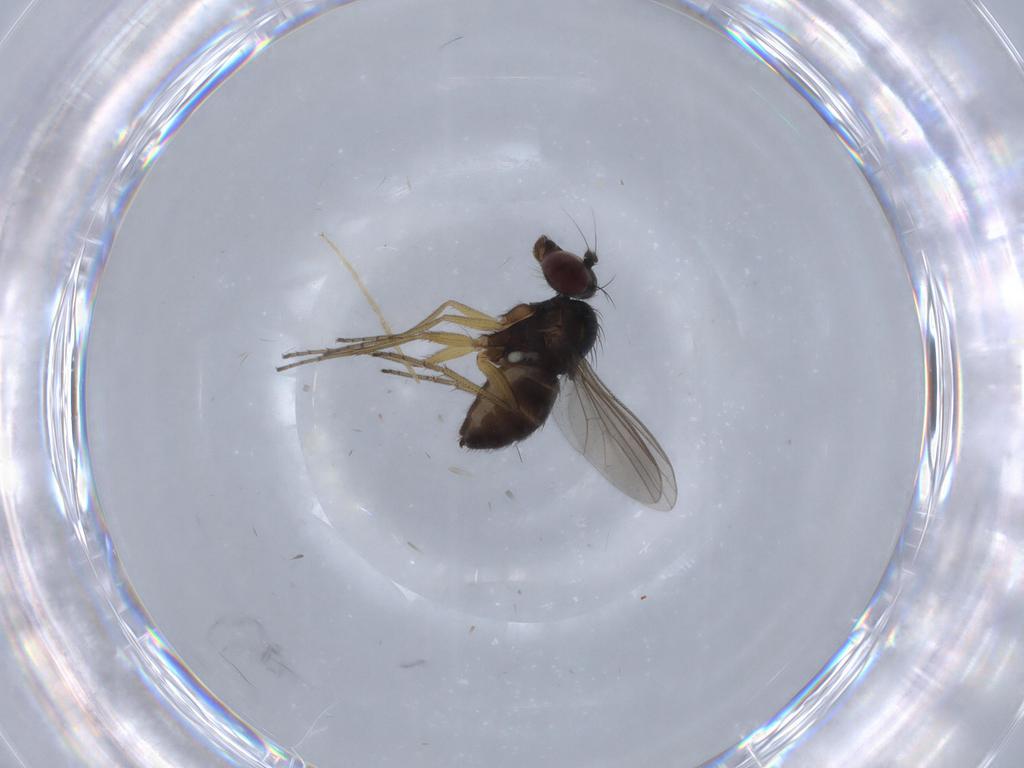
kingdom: Animalia
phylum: Arthropoda
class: Insecta
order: Diptera
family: Dolichopodidae
